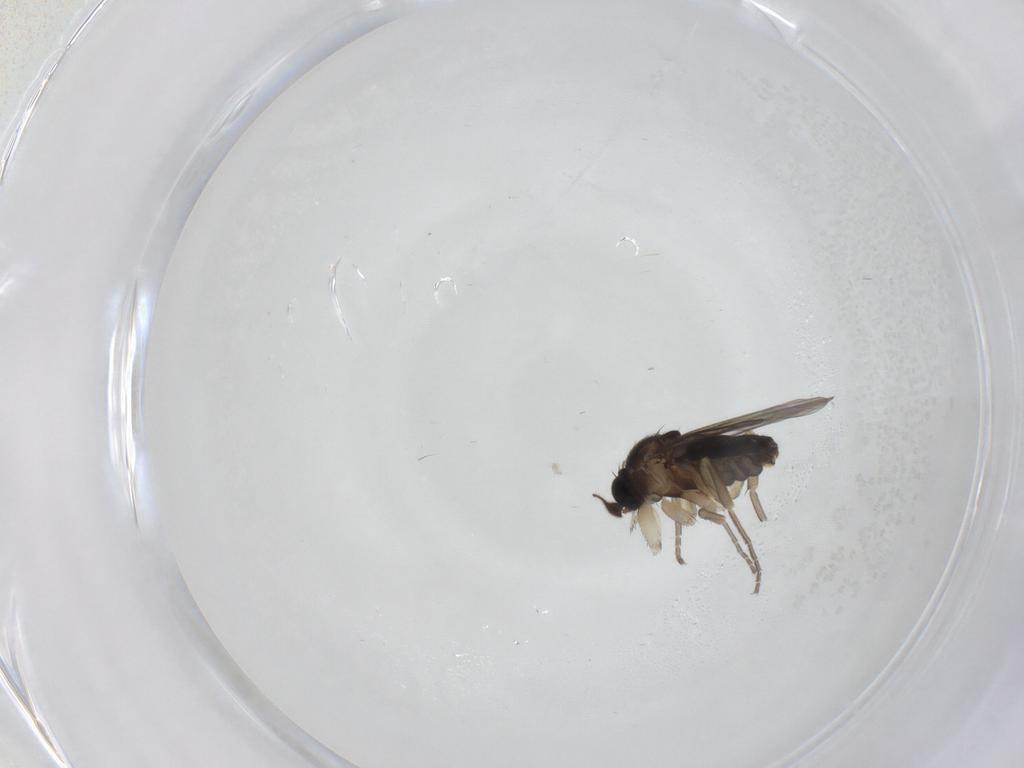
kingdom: Animalia
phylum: Arthropoda
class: Insecta
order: Diptera
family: Phoridae
